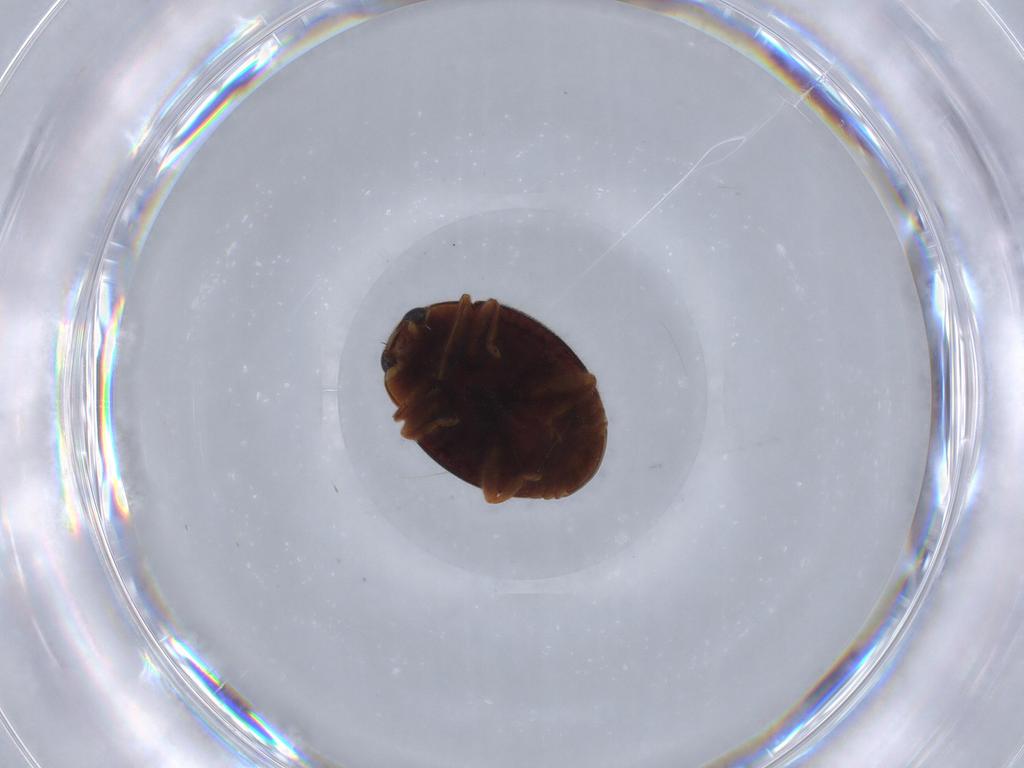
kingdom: Animalia
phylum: Arthropoda
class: Insecta
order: Coleoptera
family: Coccinellidae
